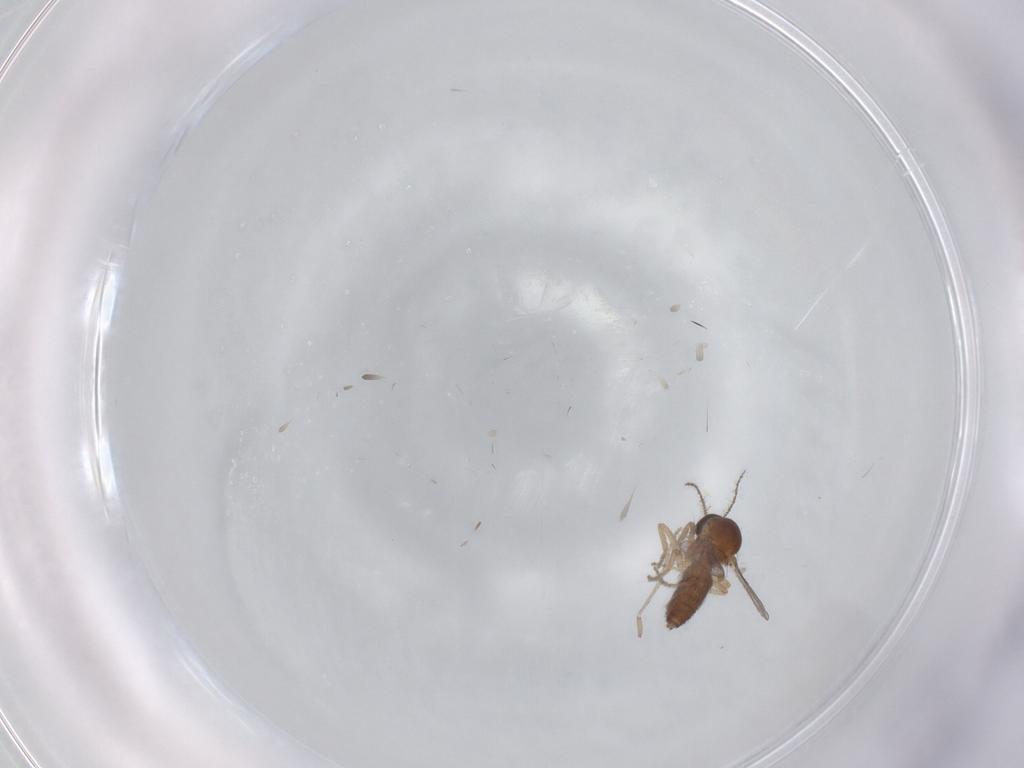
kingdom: Animalia
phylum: Arthropoda
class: Insecta
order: Diptera
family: Ceratopogonidae
